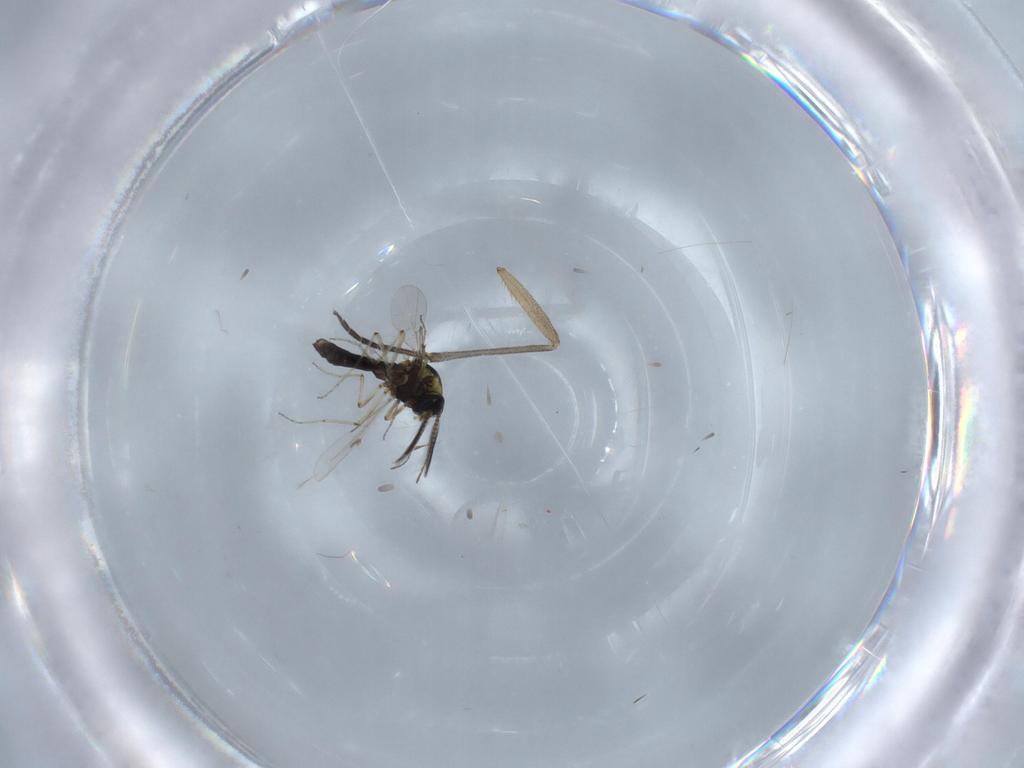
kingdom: Animalia
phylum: Arthropoda
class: Insecta
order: Diptera
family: Ceratopogonidae
